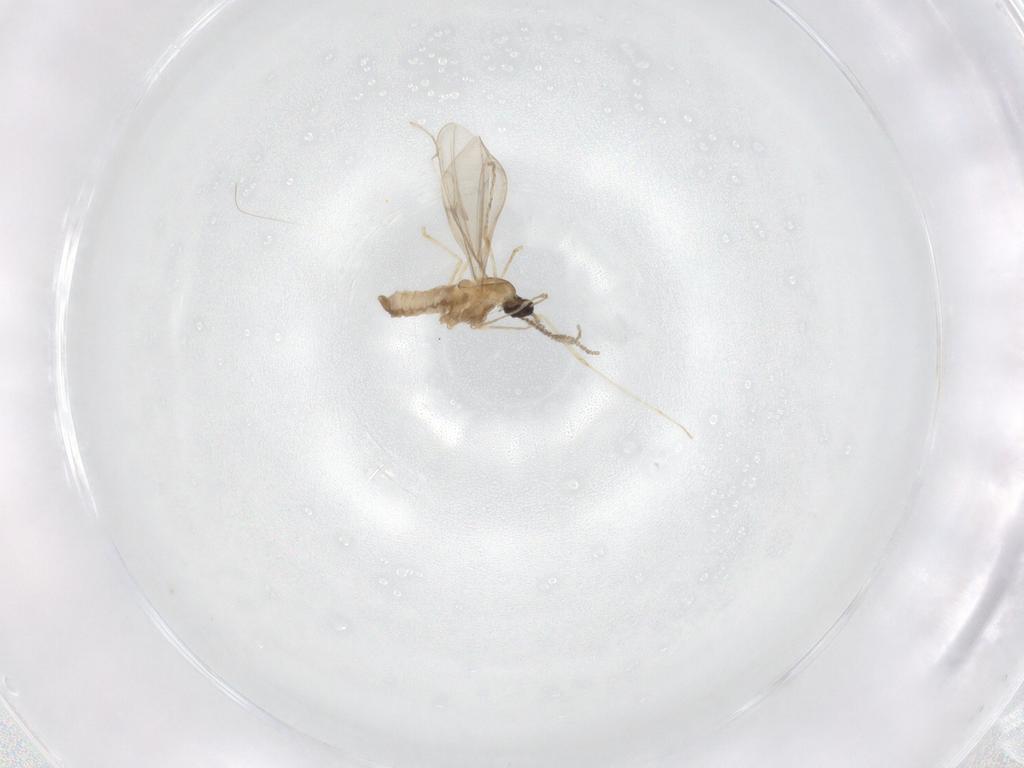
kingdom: Animalia
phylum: Arthropoda
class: Insecta
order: Diptera
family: Cecidomyiidae
